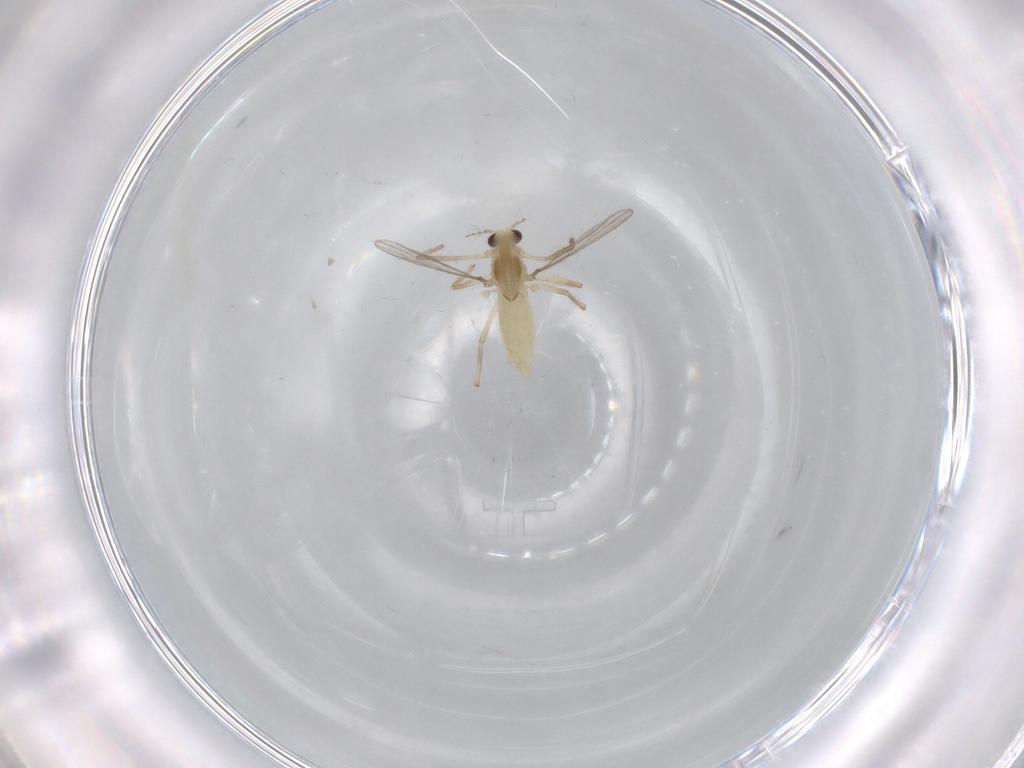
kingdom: Animalia
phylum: Arthropoda
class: Insecta
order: Diptera
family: Chironomidae
